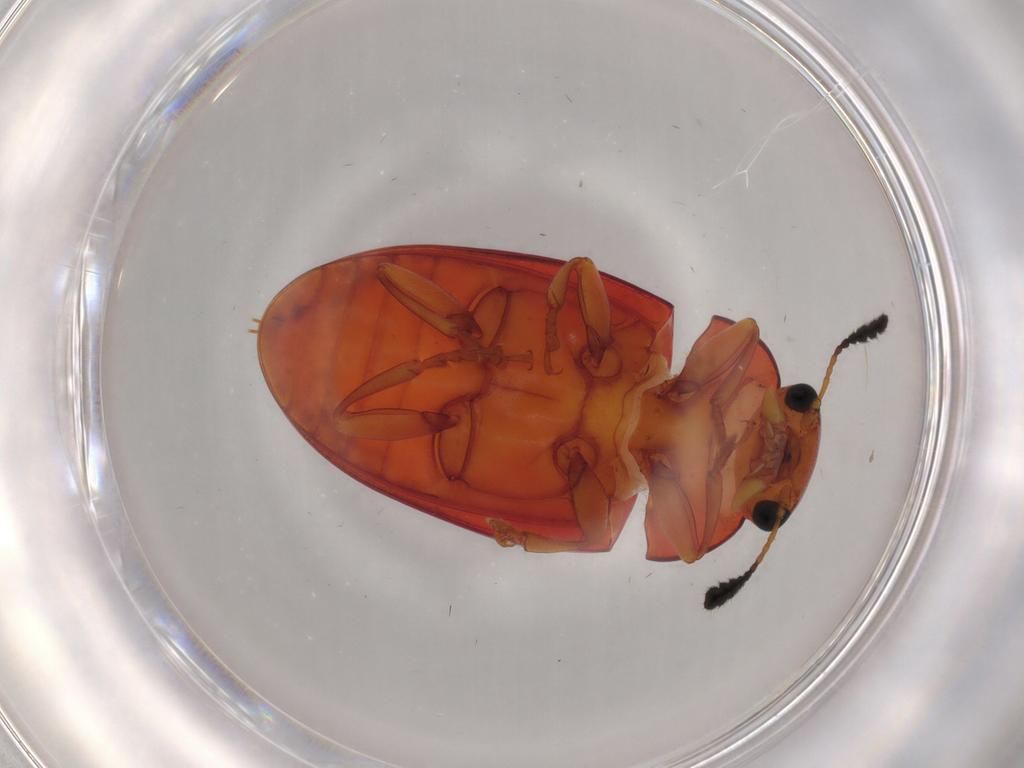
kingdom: Animalia
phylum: Arthropoda
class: Insecta
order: Coleoptera
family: Erotylidae
